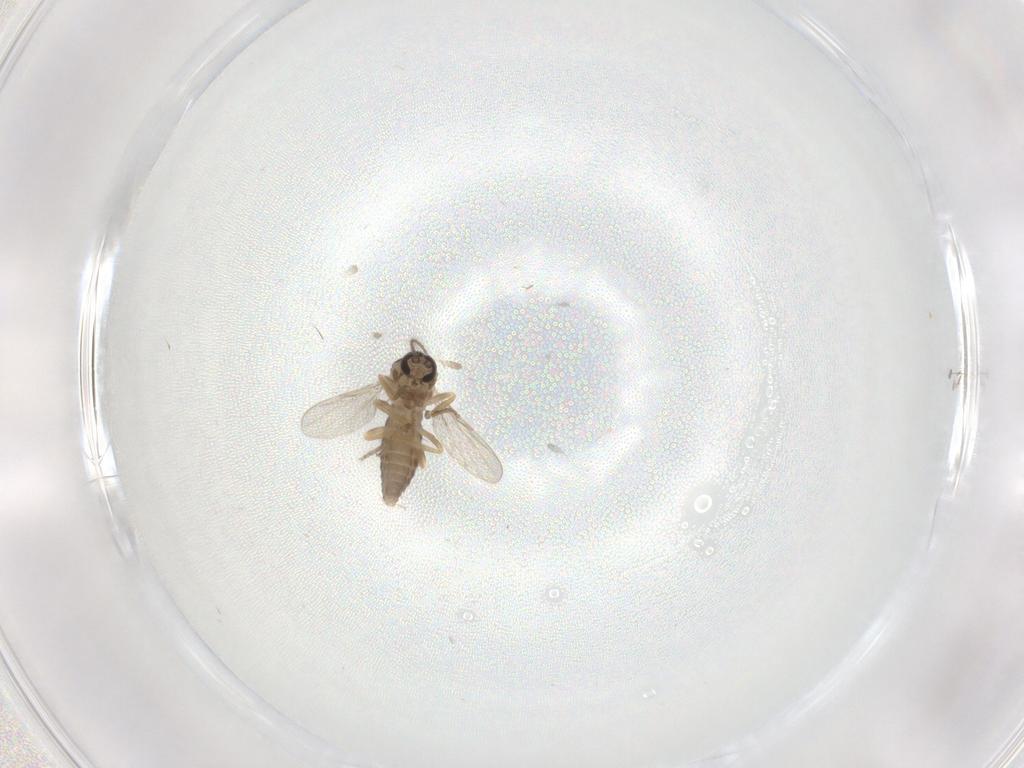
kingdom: Animalia
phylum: Arthropoda
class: Insecta
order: Diptera
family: Ceratopogonidae
